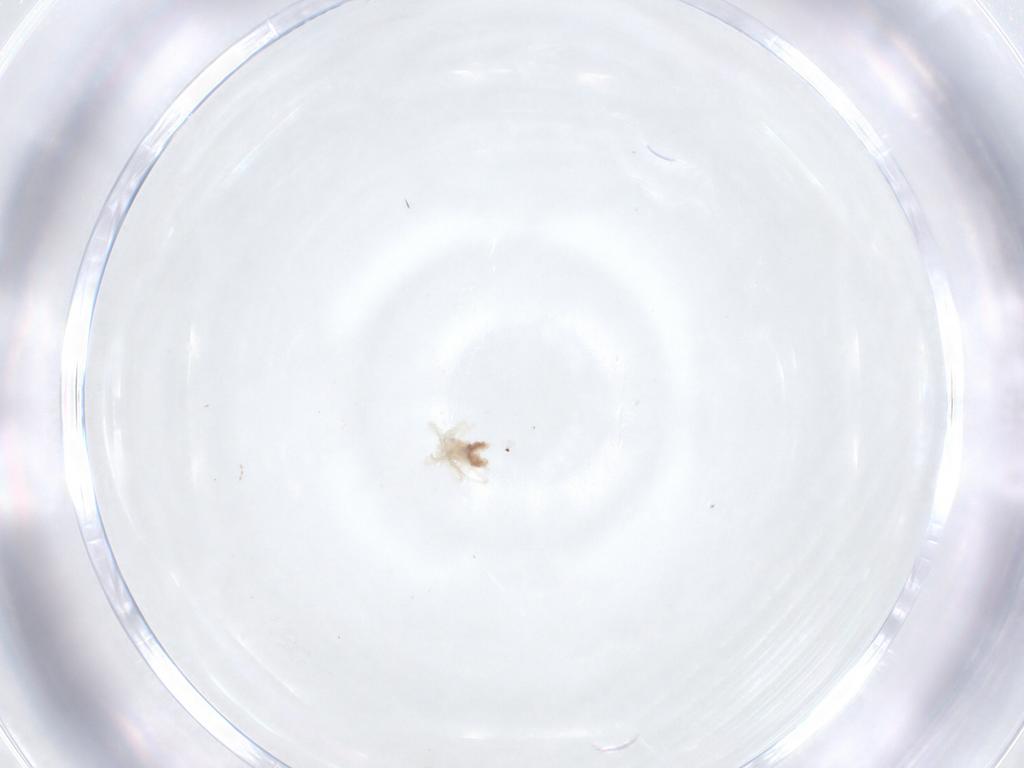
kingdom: Animalia
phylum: Arthropoda
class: Arachnida
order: Trombidiformes
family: Anystidae
